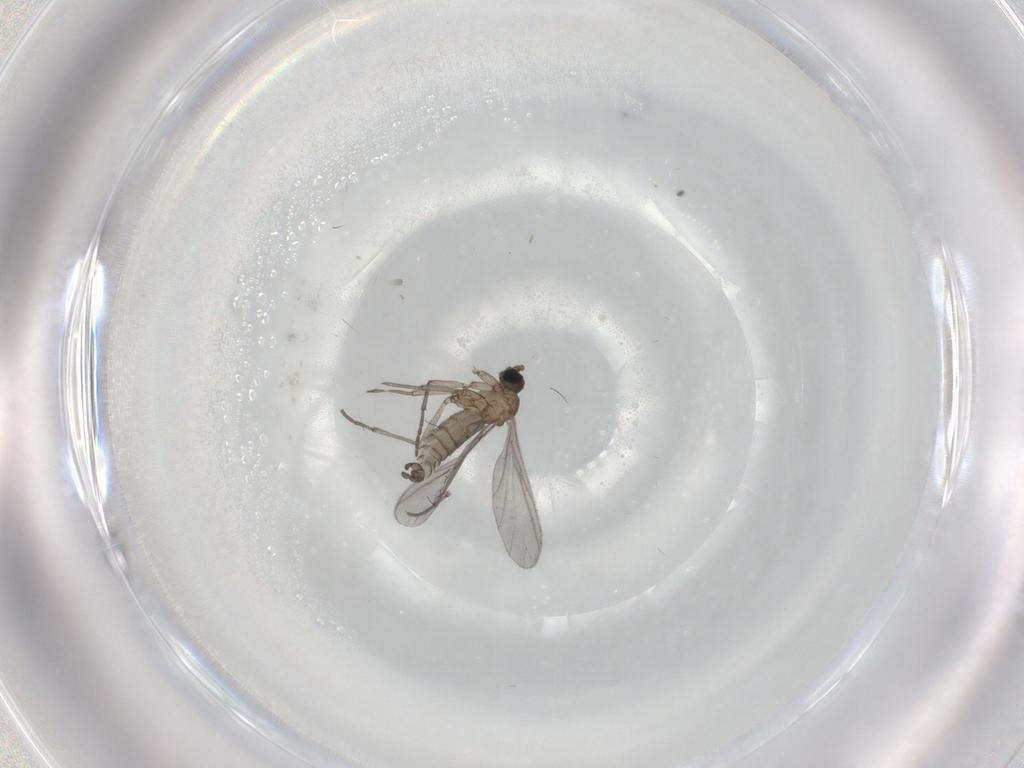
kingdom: Animalia
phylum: Arthropoda
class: Insecta
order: Diptera
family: Sciaridae
